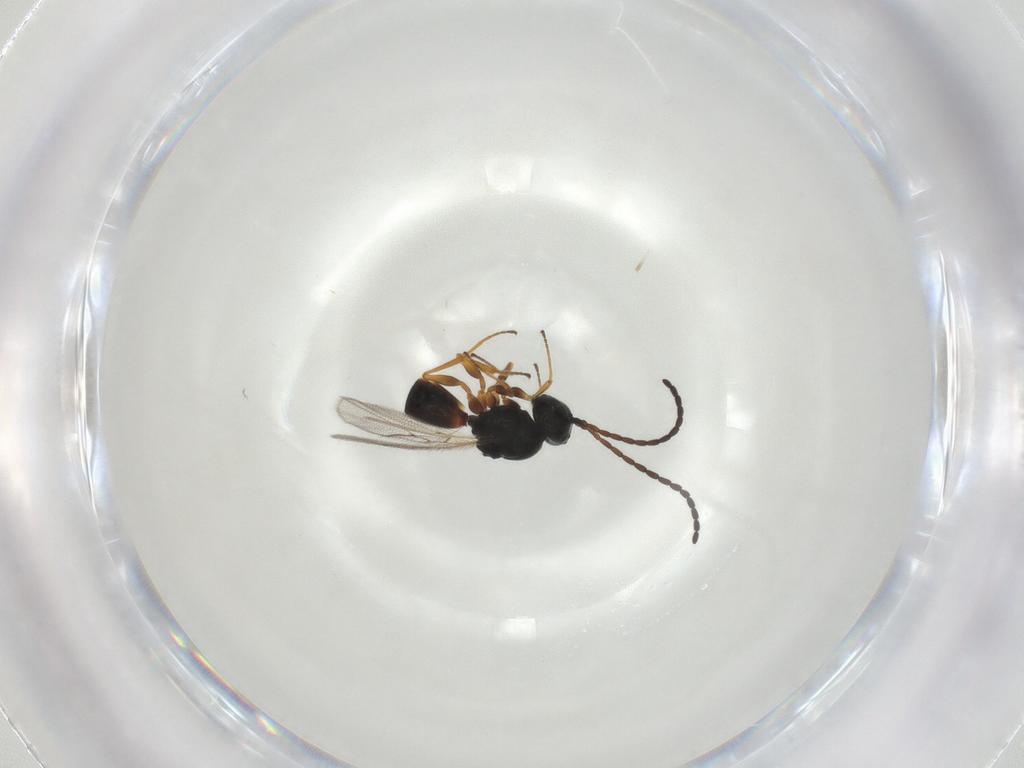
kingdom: Animalia
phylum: Arthropoda
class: Insecta
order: Hymenoptera
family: Figitidae
